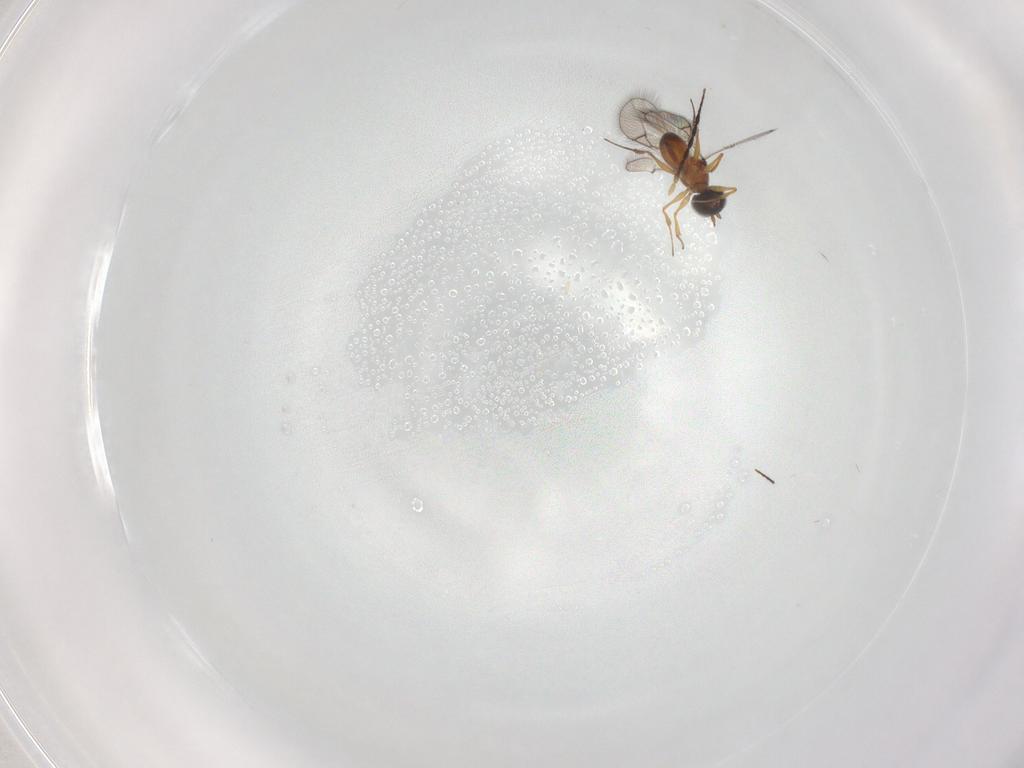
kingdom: Animalia
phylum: Arthropoda
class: Insecta
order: Hymenoptera
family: Figitidae
